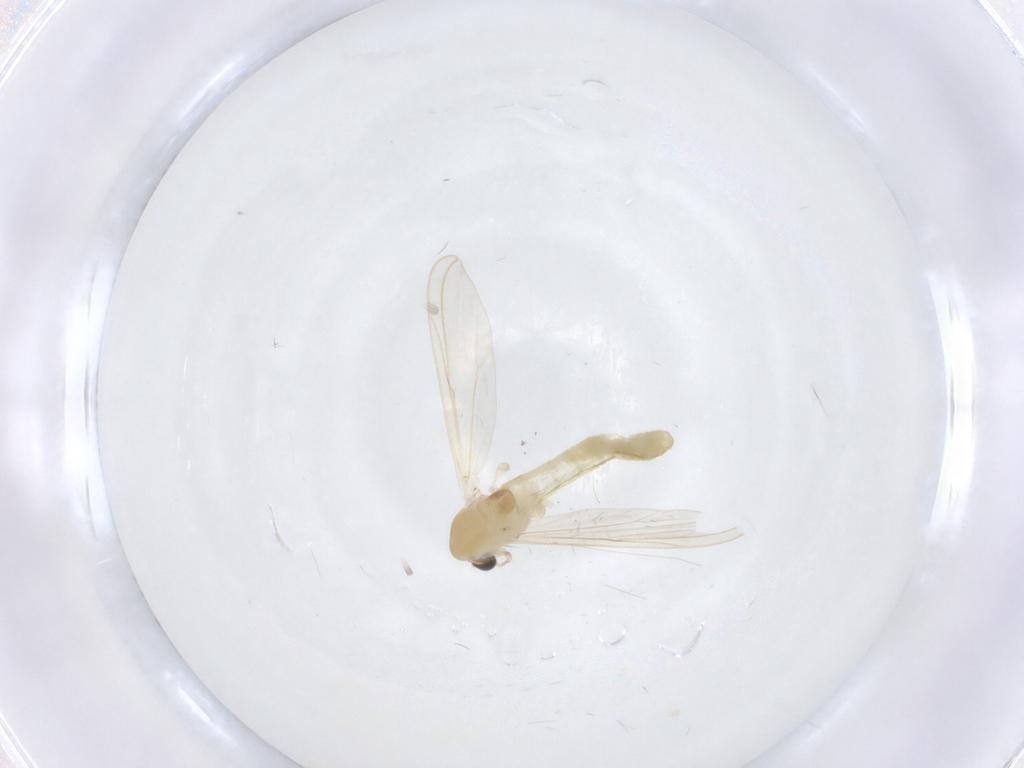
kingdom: Animalia
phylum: Arthropoda
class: Insecta
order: Diptera
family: Chironomidae
